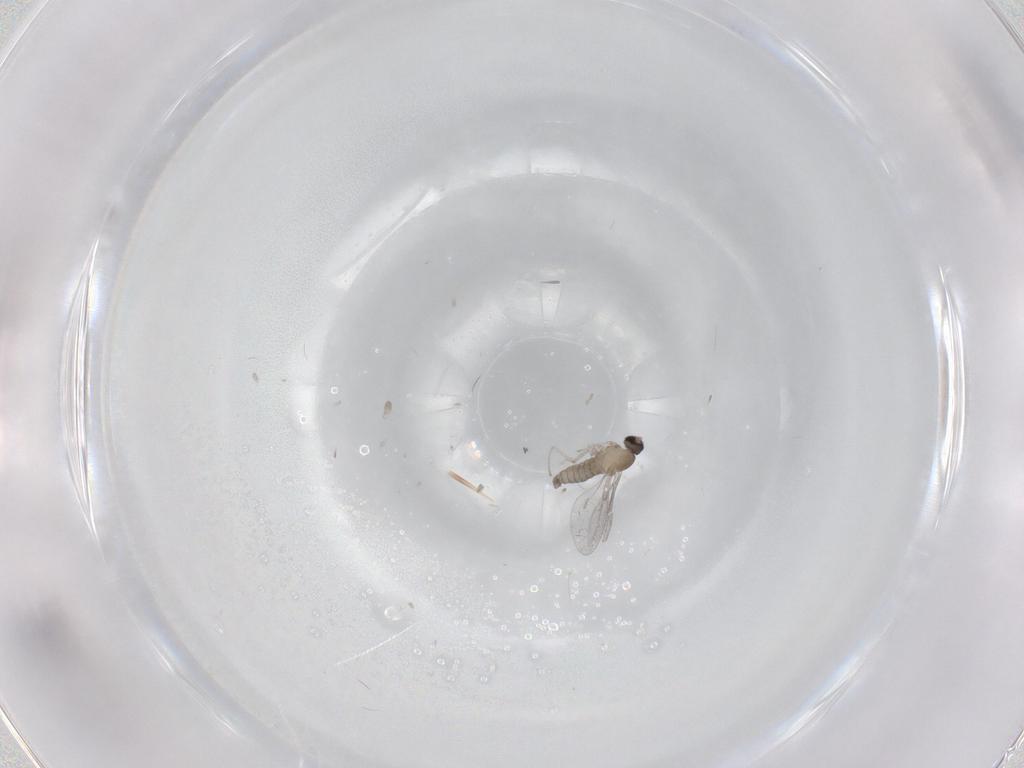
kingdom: Animalia
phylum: Arthropoda
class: Insecta
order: Diptera
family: Cecidomyiidae
